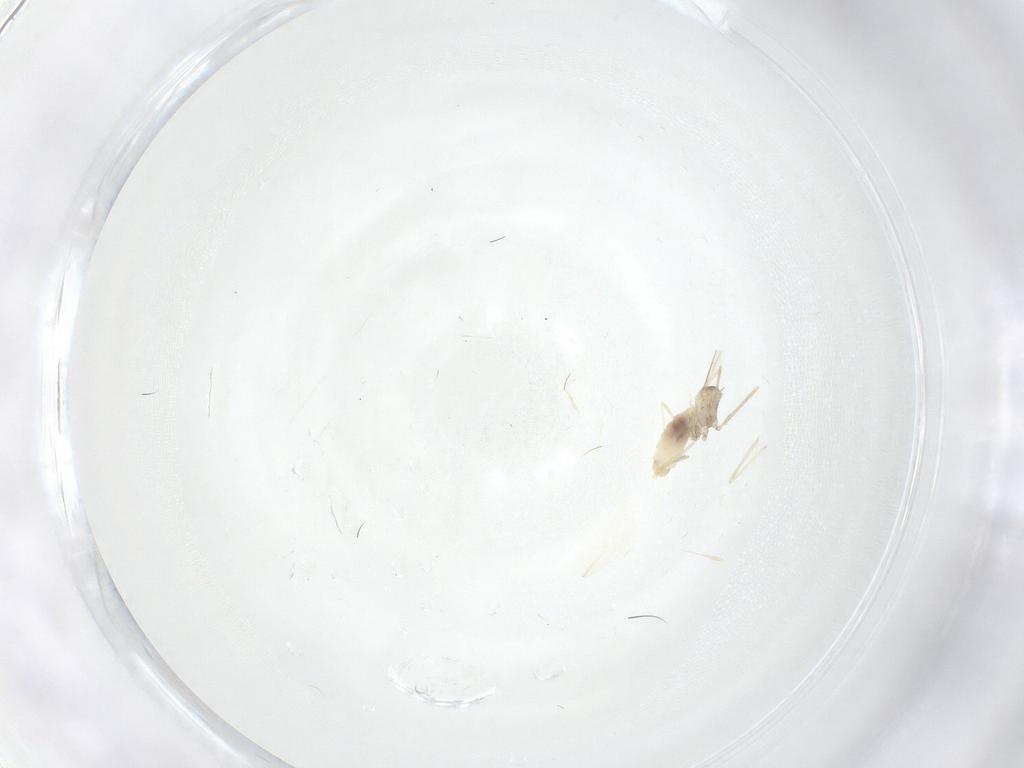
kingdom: Animalia
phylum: Arthropoda
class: Insecta
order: Diptera
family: Cecidomyiidae
